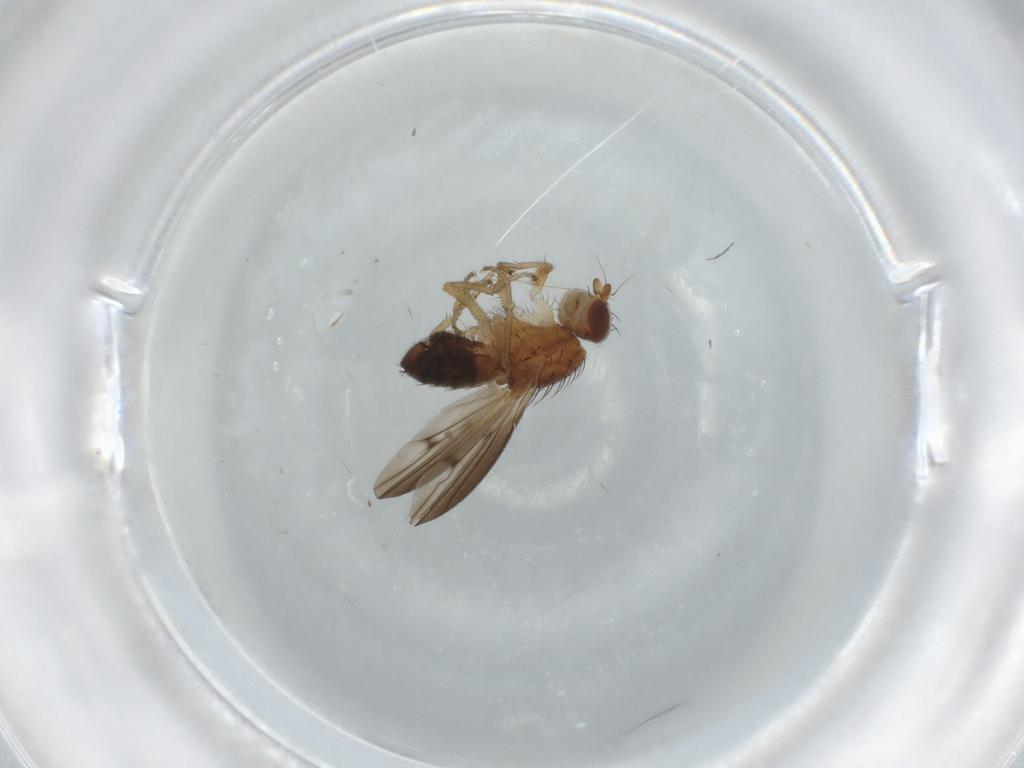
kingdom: Animalia
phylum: Arthropoda
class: Insecta
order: Diptera
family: Heleomyzidae
